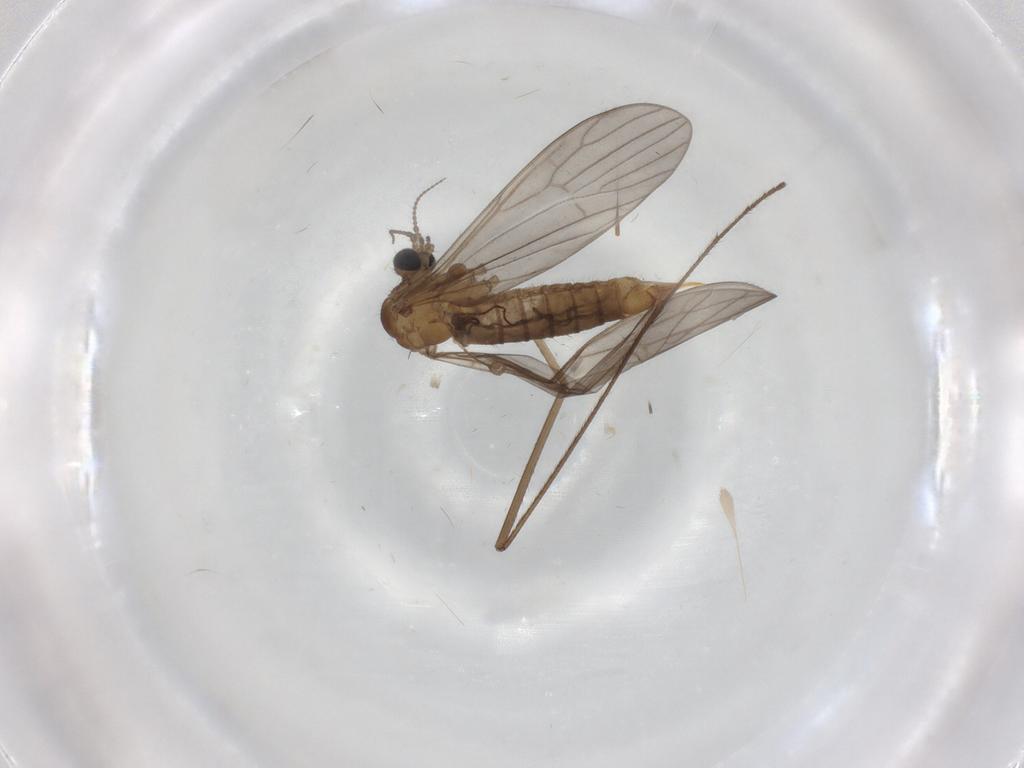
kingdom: Animalia
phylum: Arthropoda
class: Insecta
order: Diptera
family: Limoniidae
